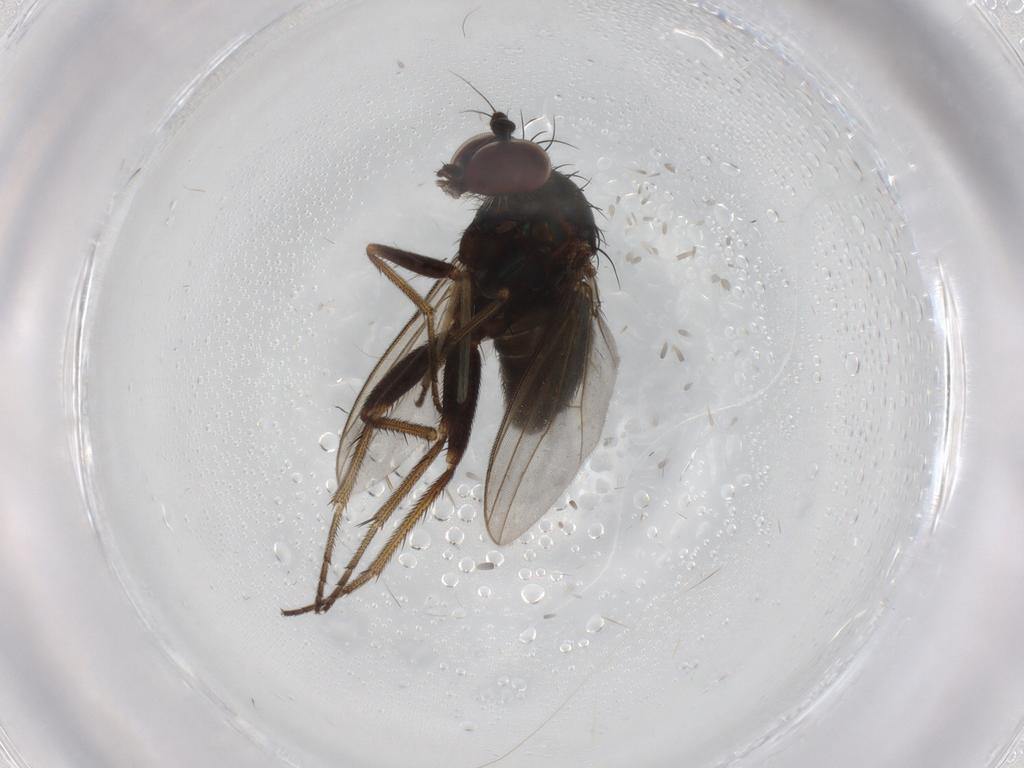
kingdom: Animalia
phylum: Arthropoda
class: Insecta
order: Diptera
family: Dolichopodidae
